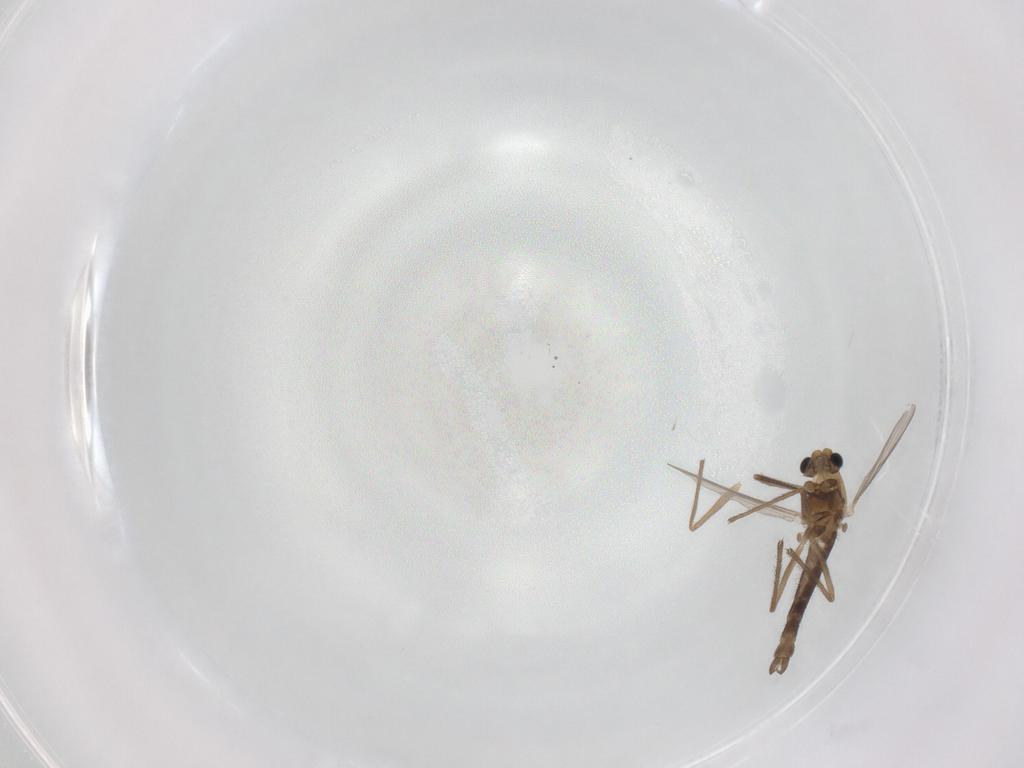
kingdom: Animalia
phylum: Arthropoda
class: Insecta
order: Diptera
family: Chironomidae
